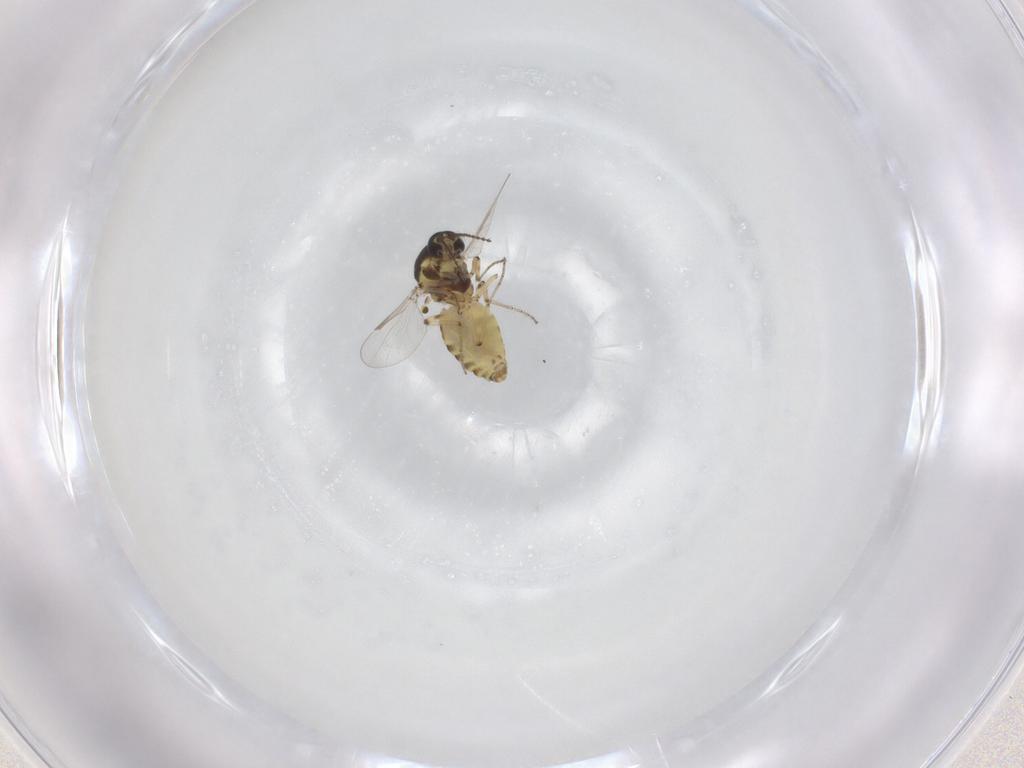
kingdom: Animalia
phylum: Arthropoda
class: Insecta
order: Diptera
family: Ceratopogonidae
